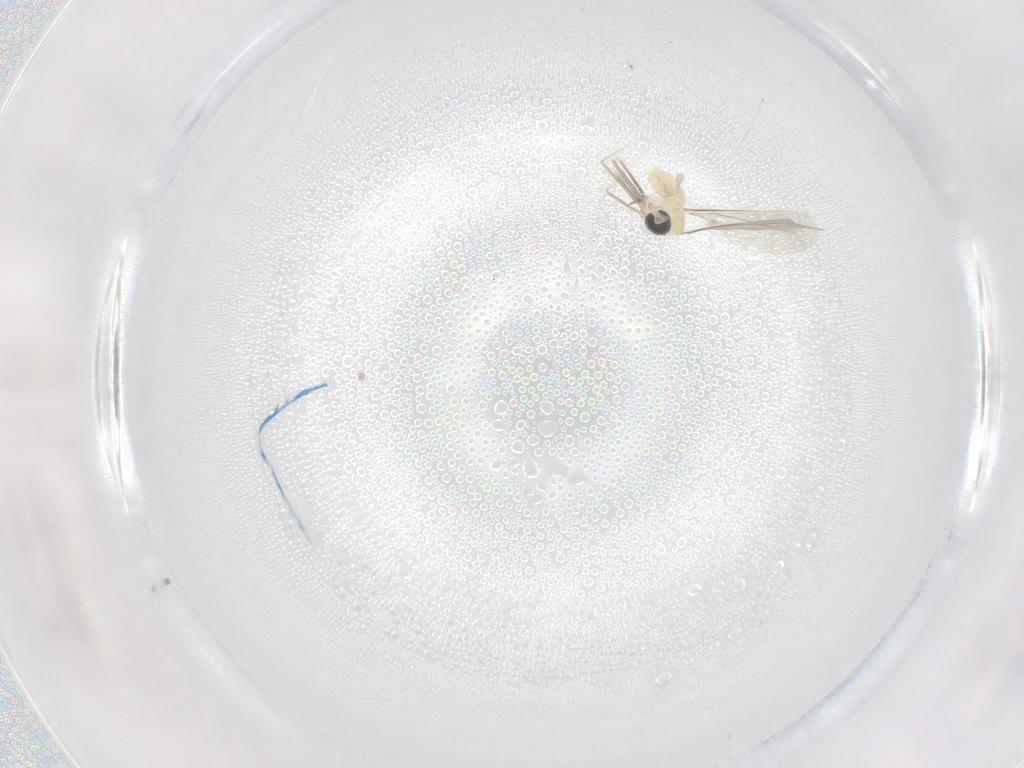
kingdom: Animalia
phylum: Arthropoda
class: Insecta
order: Diptera
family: Cecidomyiidae
